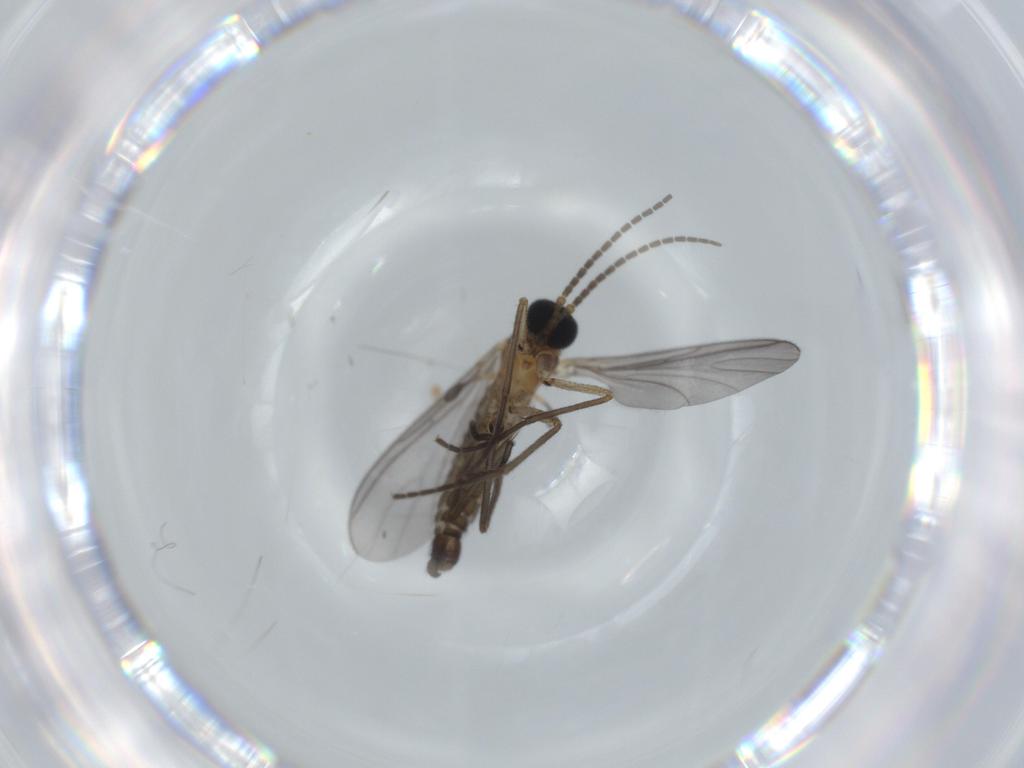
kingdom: Animalia
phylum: Arthropoda
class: Insecta
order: Diptera
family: Sciaridae
